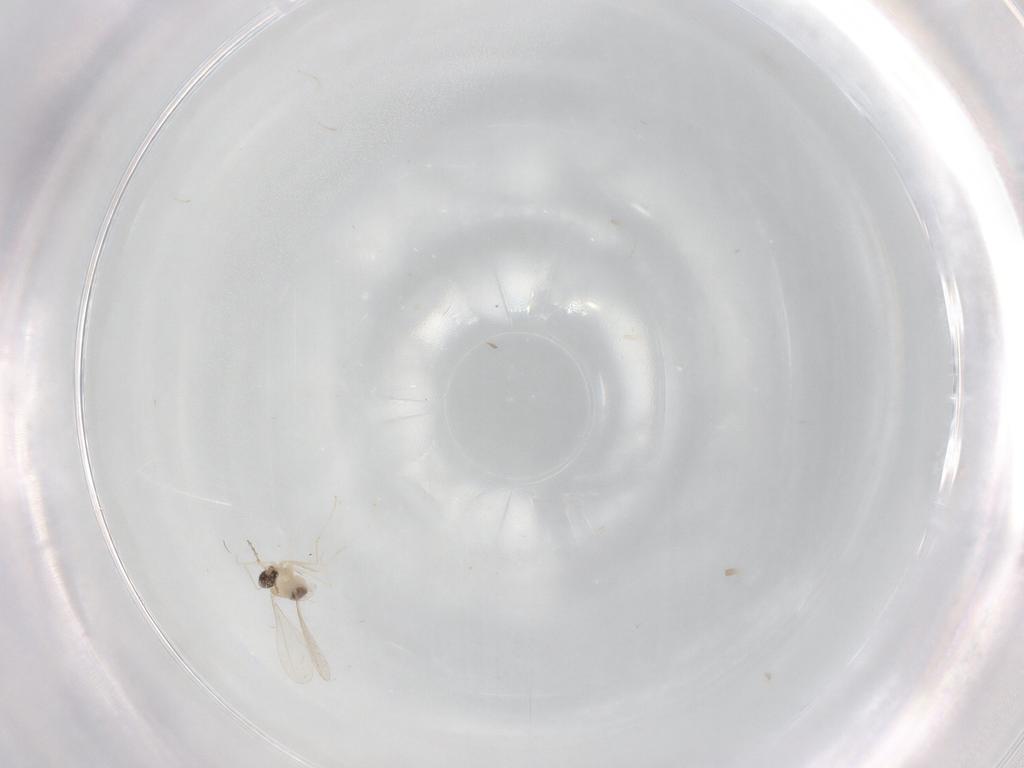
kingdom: Animalia
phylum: Arthropoda
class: Insecta
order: Diptera
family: Cecidomyiidae
